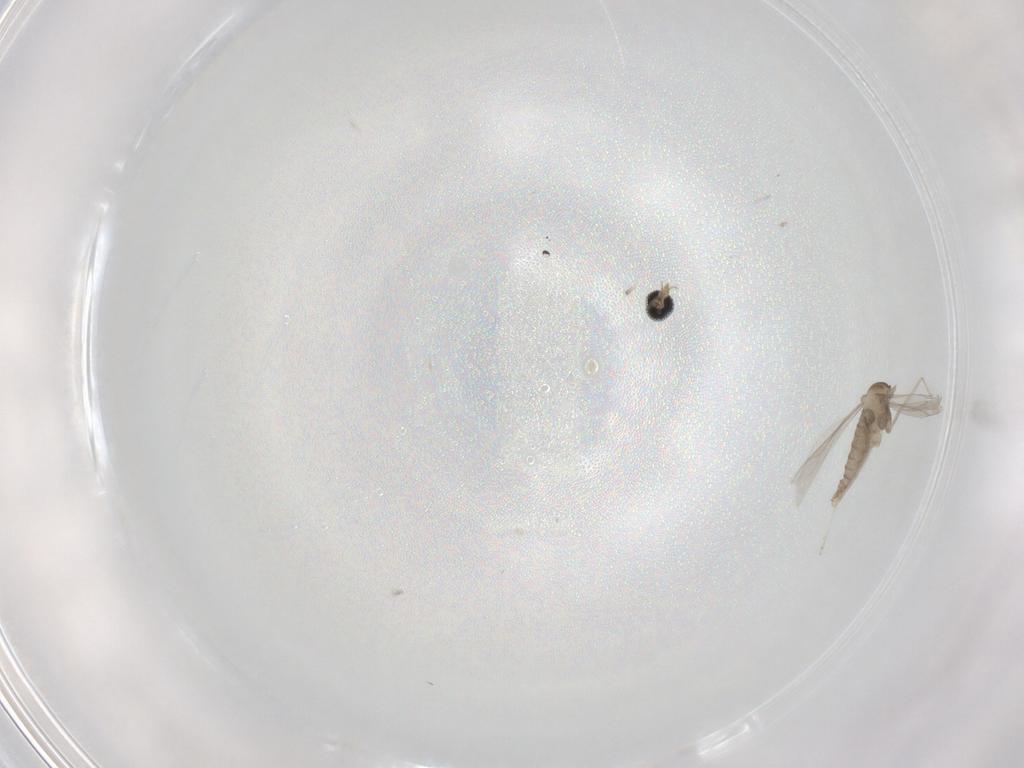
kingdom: Animalia
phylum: Arthropoda
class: Insecta
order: Diptera
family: Cecidomyiidae
